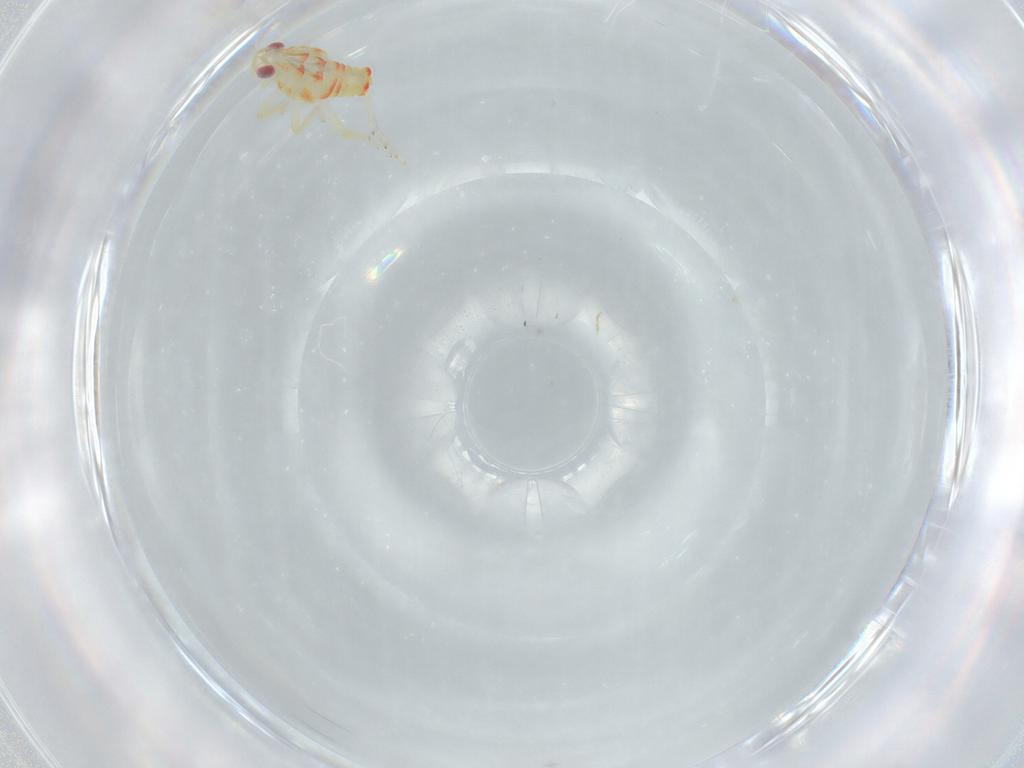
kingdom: Animalia
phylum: Arthropoda
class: Insecta
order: Hemiptera
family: Tropiduchidae
